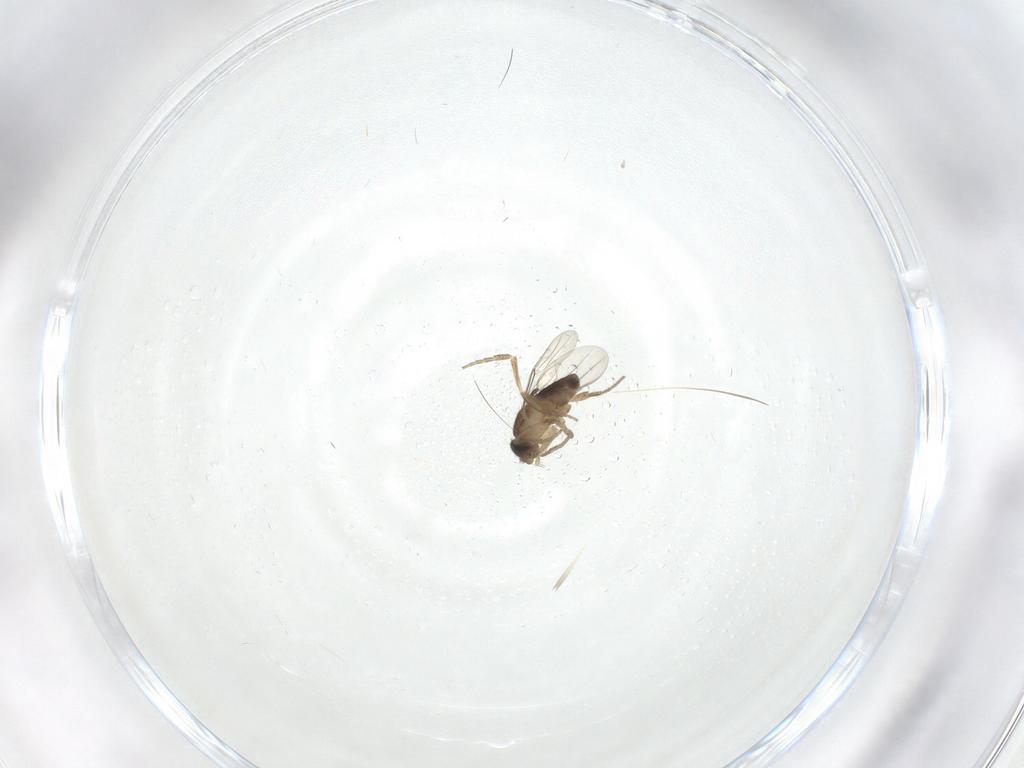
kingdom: Animalia
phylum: Arthropoda
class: Insecta
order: Diptera
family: Phoridae
